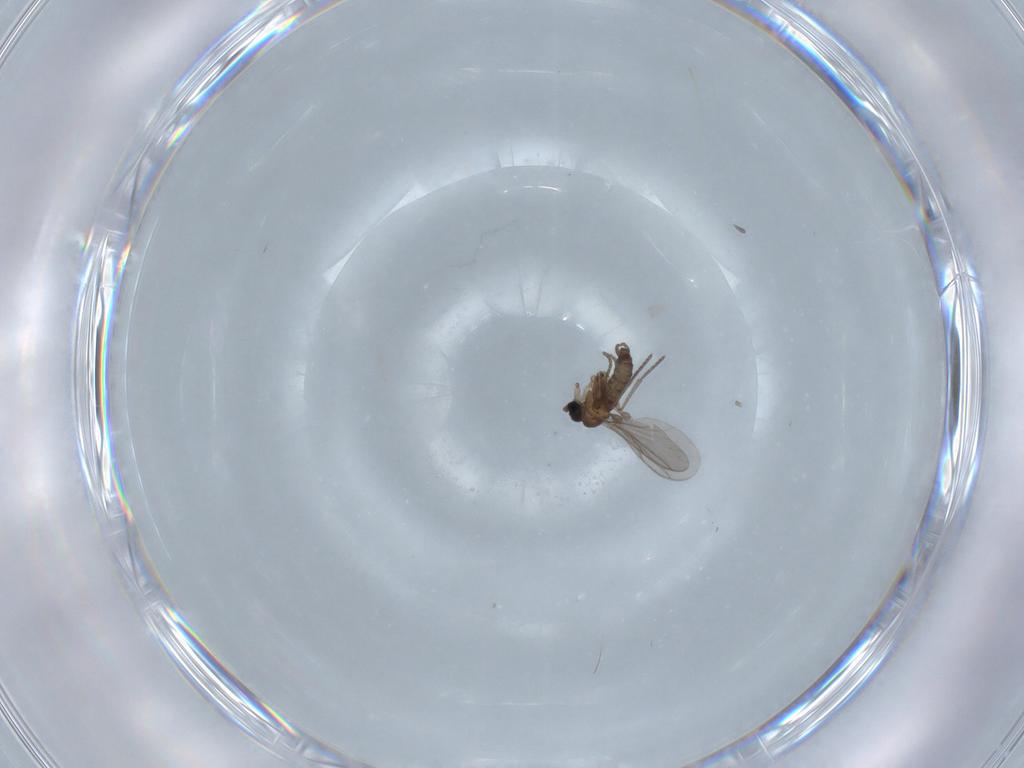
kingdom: Animalia
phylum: Arthropoda
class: Insecta
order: Diptera
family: Sciaridae
